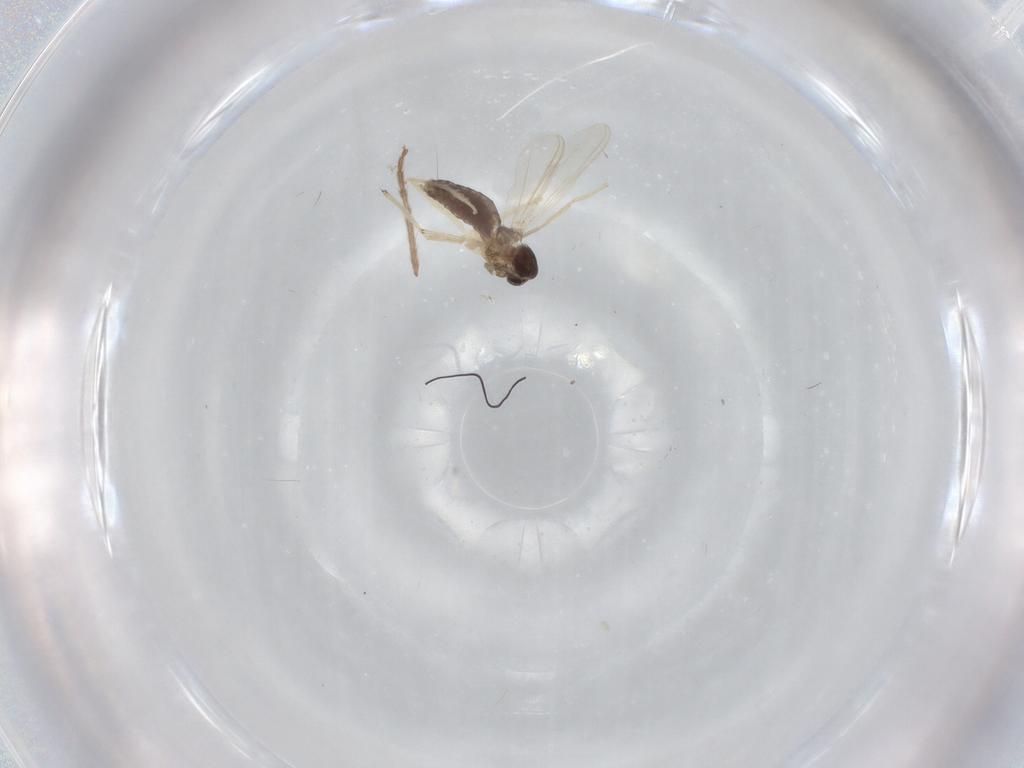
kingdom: Animalia
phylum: Arthropoda
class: Insecta
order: Diptera
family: Chironomidae
